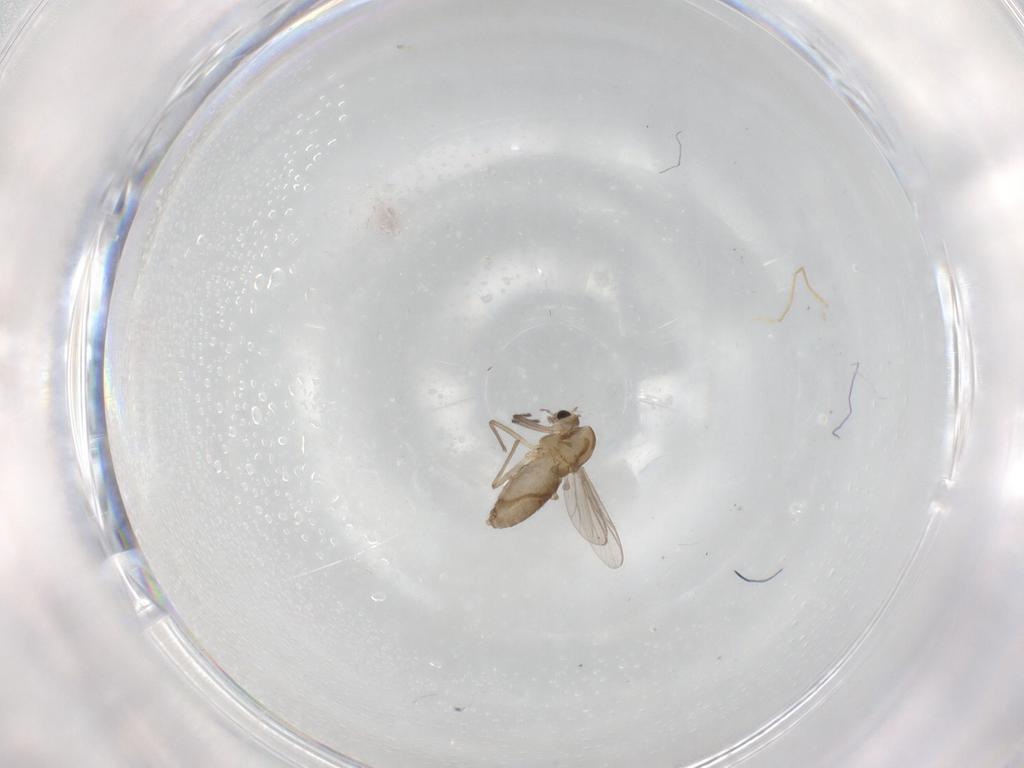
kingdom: Animalia
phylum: Arthropoda
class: Insecta
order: Diptera
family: Chironomidae
